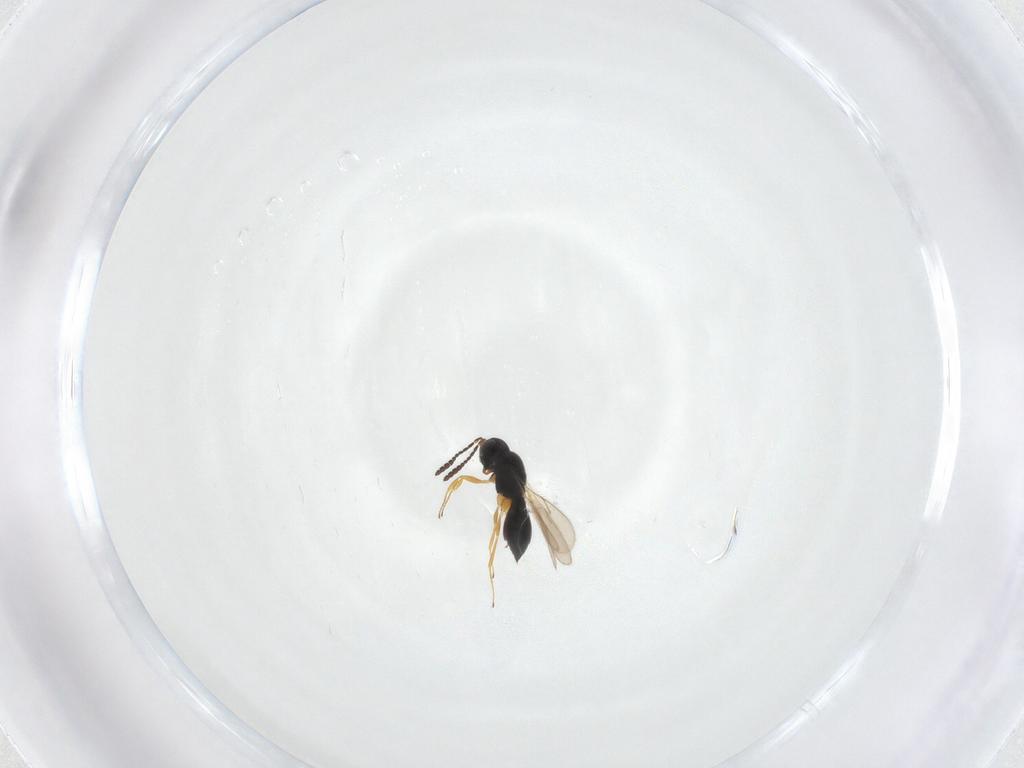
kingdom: Animalia
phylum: Arthropoda
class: Insecta
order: Hymenoptera
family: Scelionidae
